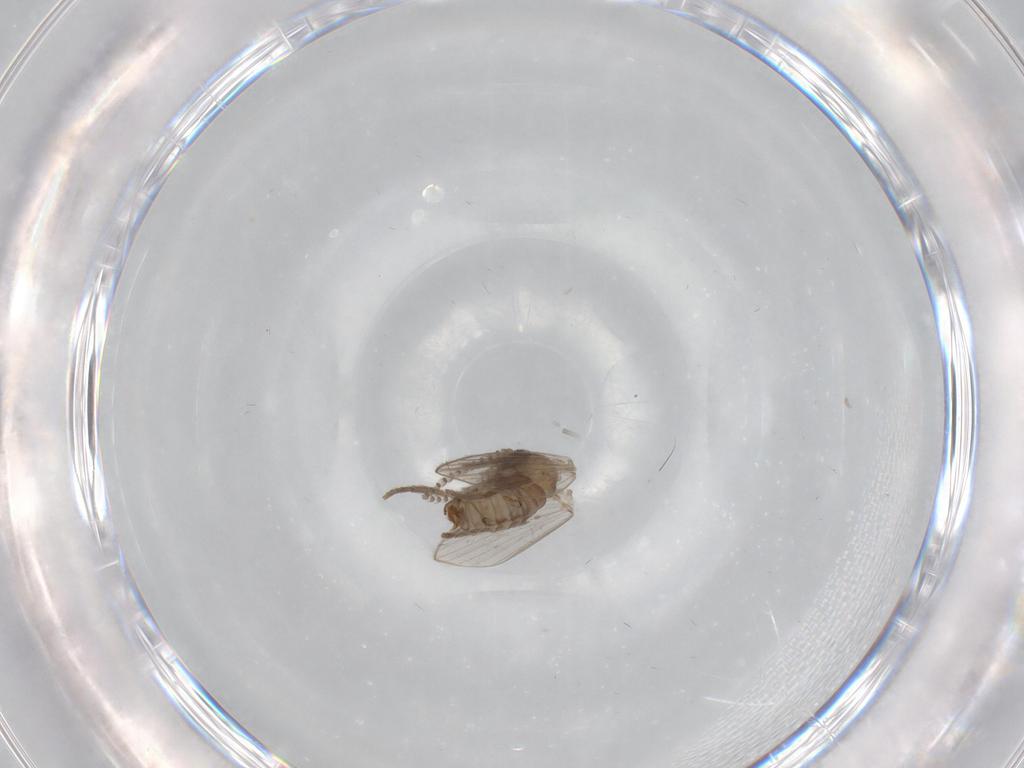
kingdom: Animalia
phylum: Arthropoda
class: Insecta
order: Diptera
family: Psychodidae
